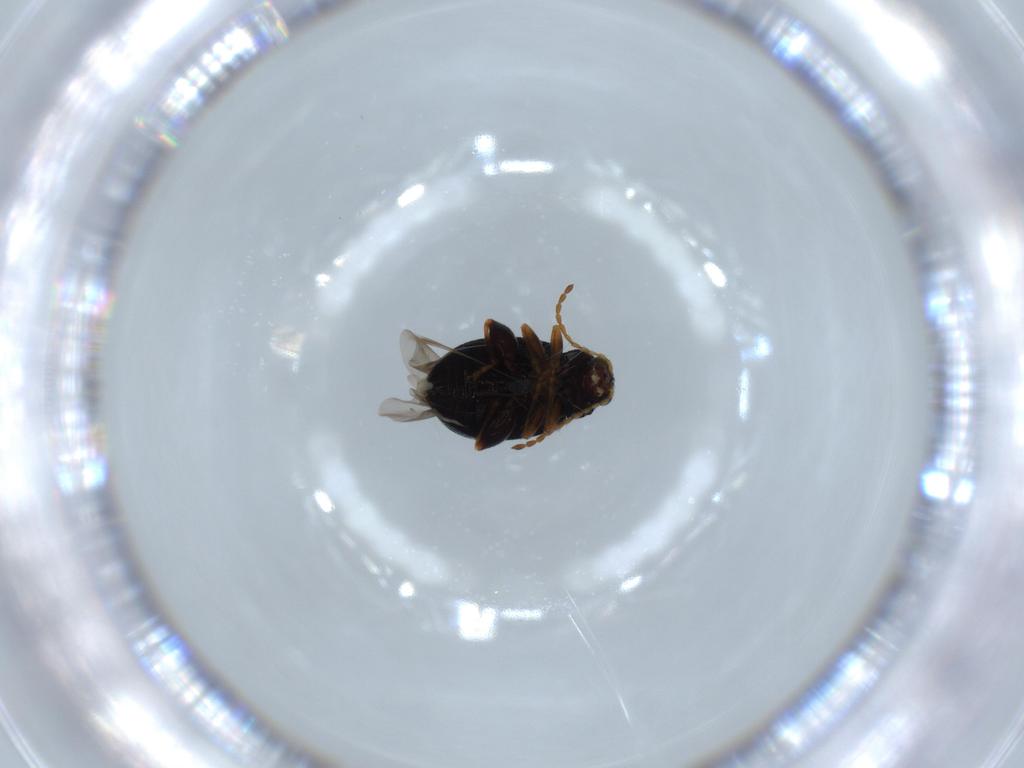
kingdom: Animalia
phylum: Arthropoda
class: Insecta
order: Coleoptera
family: Chrysomelidae
